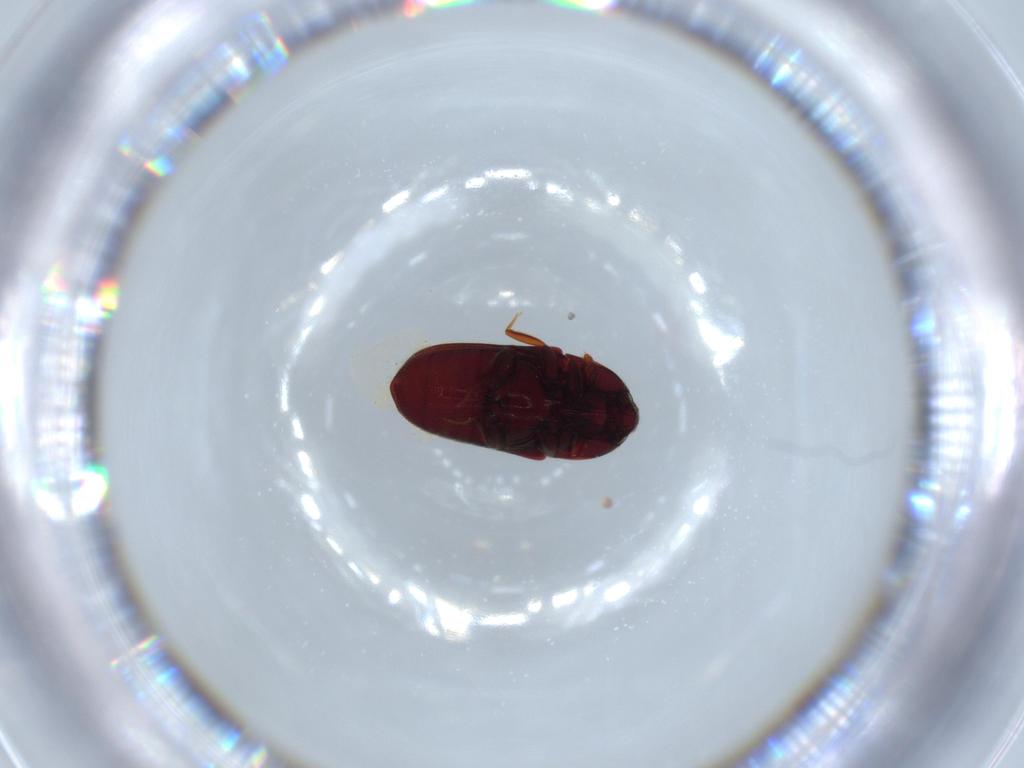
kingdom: Animalia
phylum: Arthropoda
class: Insecta
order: Coleoptera
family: Throscidae
